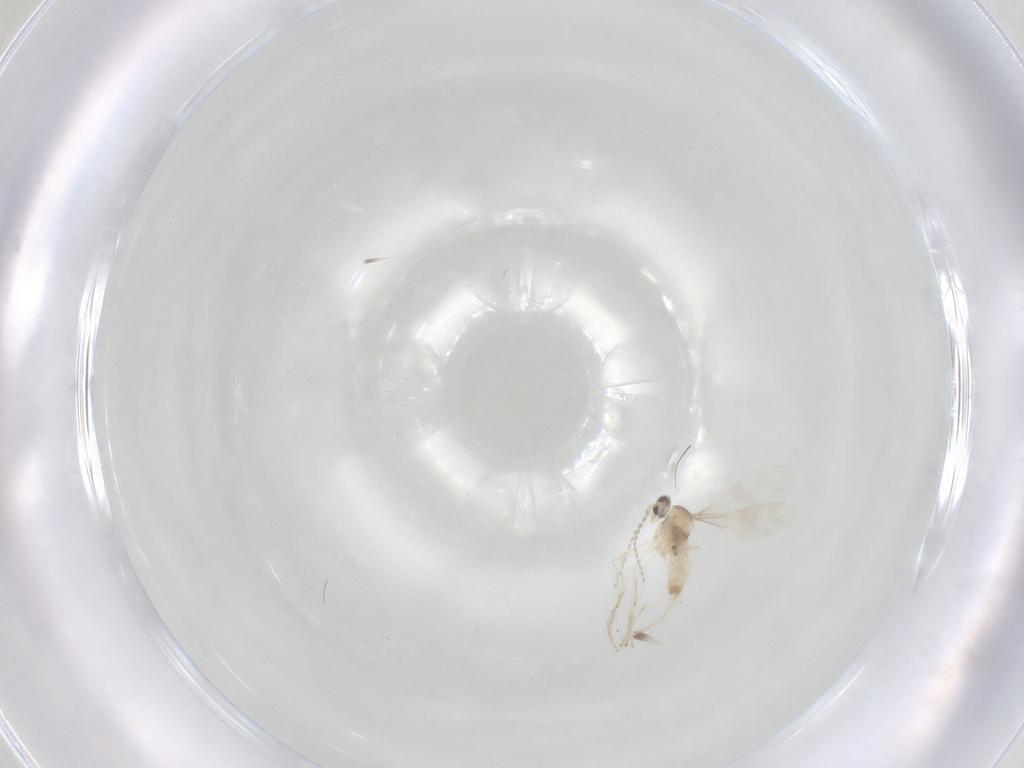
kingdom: Animalia
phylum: Arthropoda
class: Insecta
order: Diptera
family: Cecidomyiidae
